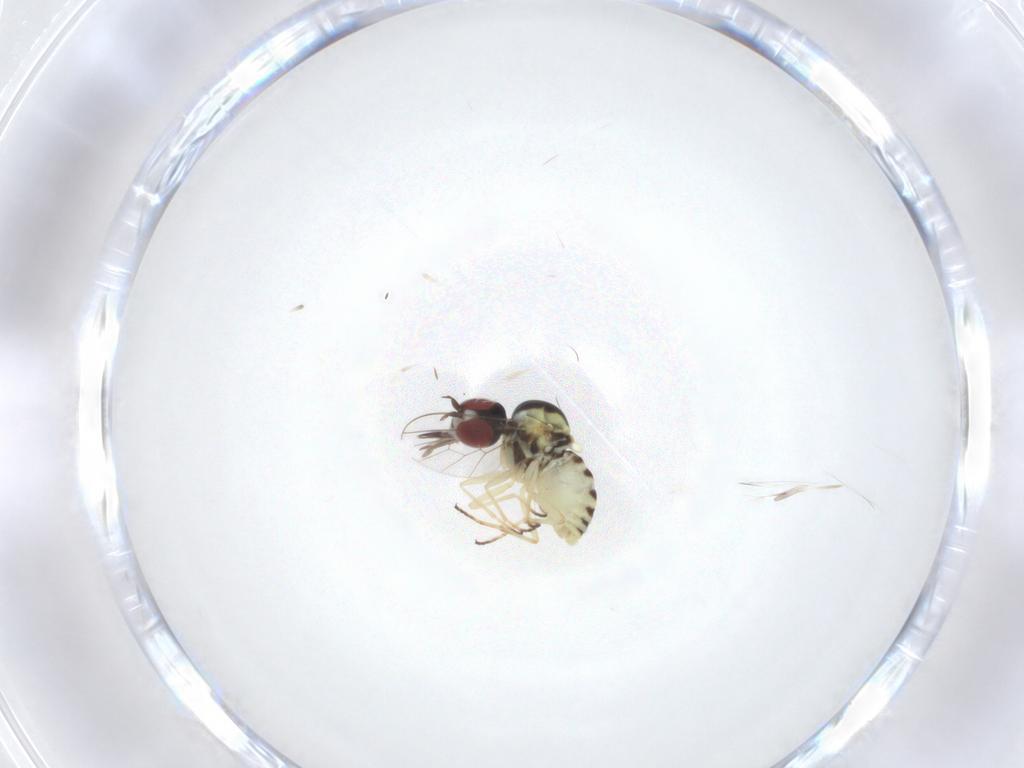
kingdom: Animalia
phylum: Arthropoda
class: Insecta
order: Diptera
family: Mythicomyiidae
